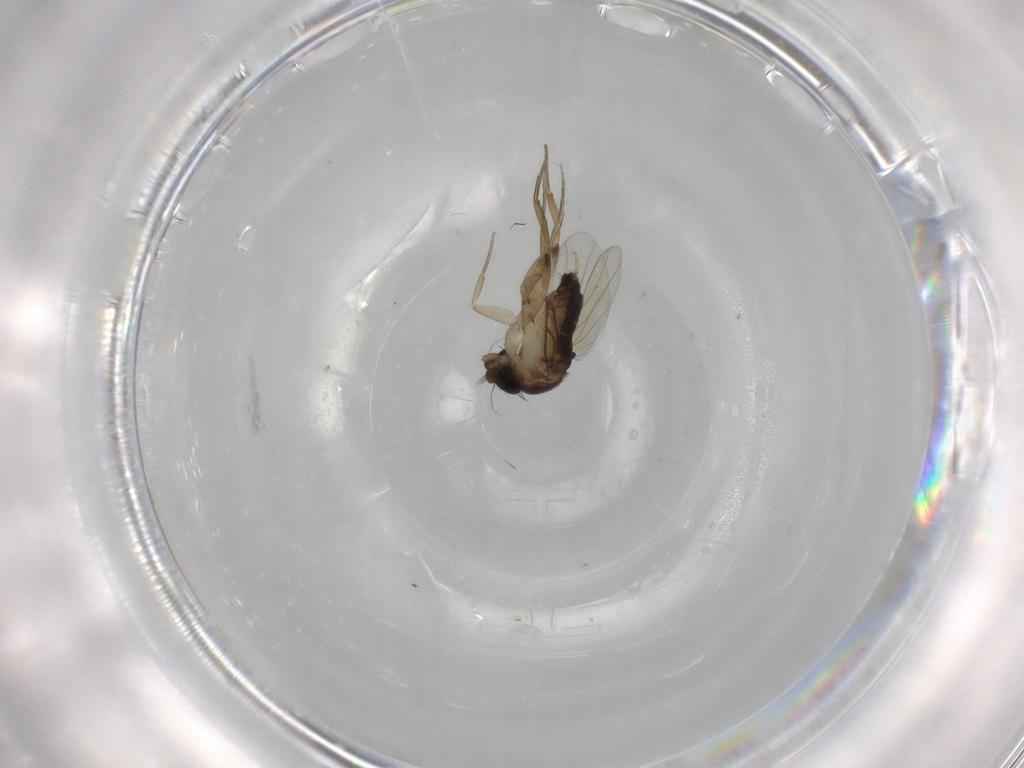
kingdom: Animalia
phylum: Arthropoda
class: Insecta
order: Diptera
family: Phoridae
